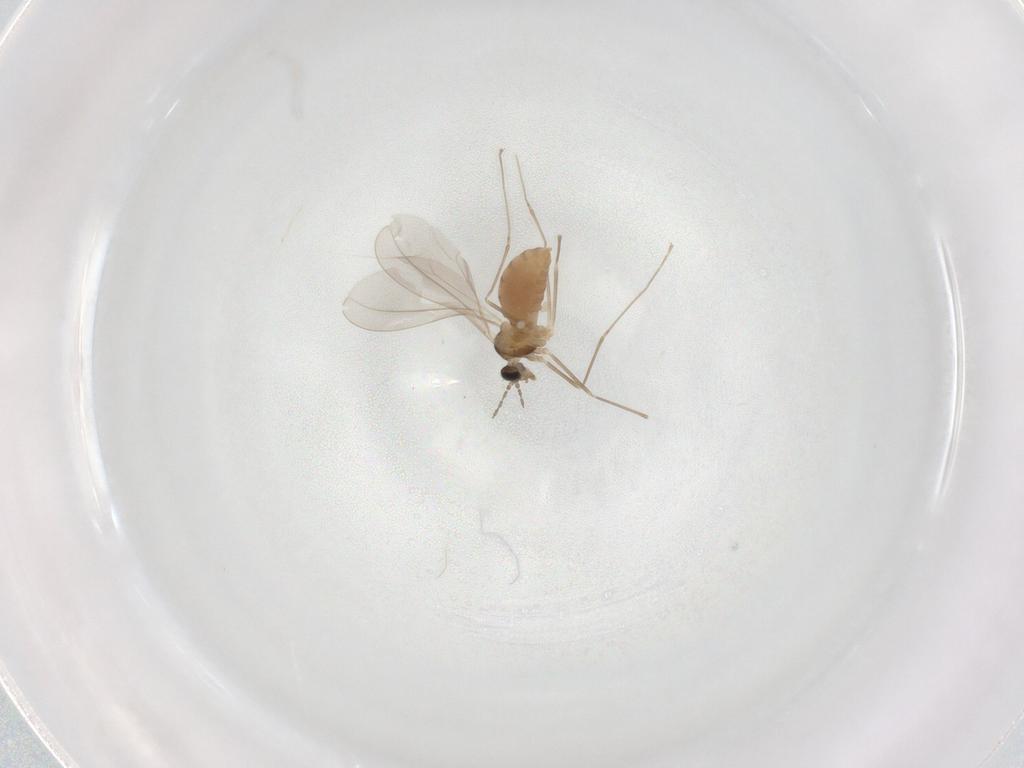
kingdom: Animalia
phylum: Arthropoda
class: Insecta
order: Diptera
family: Cecidomyiidae
